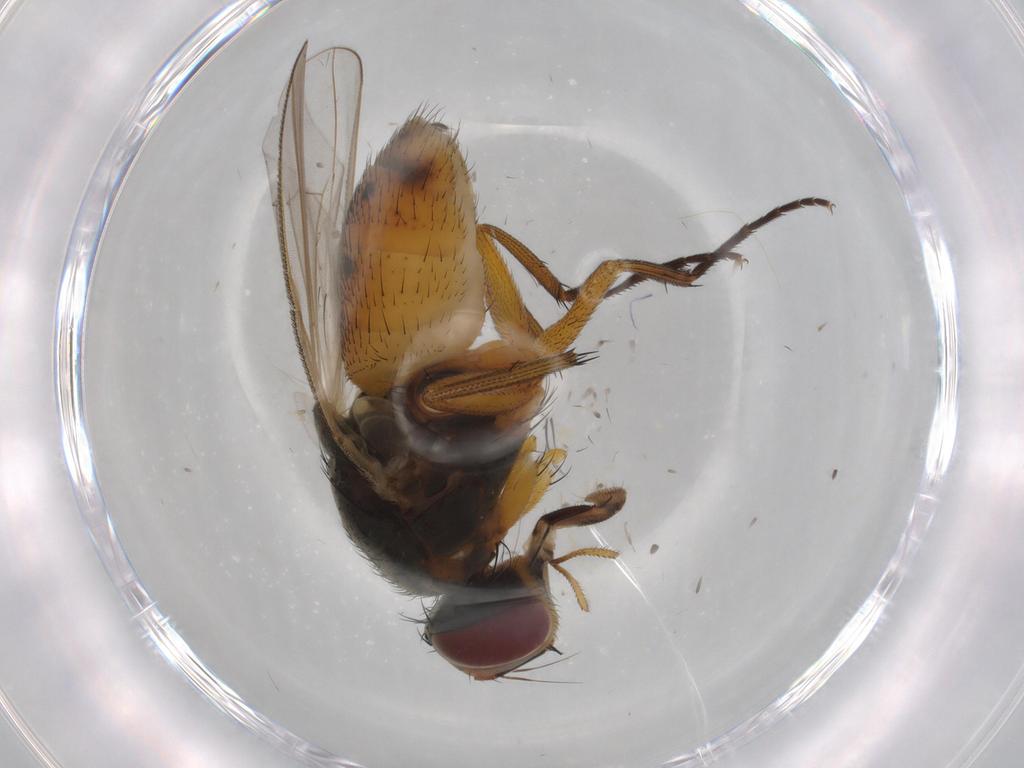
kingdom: Animalia
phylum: Arthropoda
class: Insecta
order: Diptera
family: Muscidae
